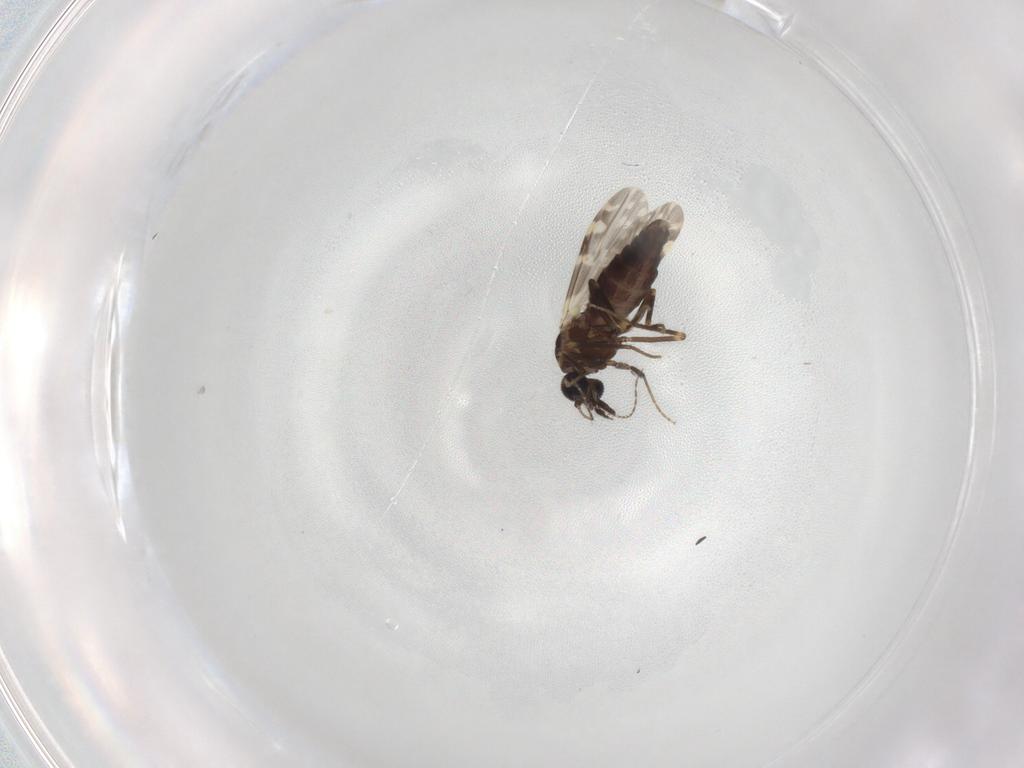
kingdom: Animalia
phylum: Arthropoda
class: Insecta
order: Diptera
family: Ceratopogonidae
